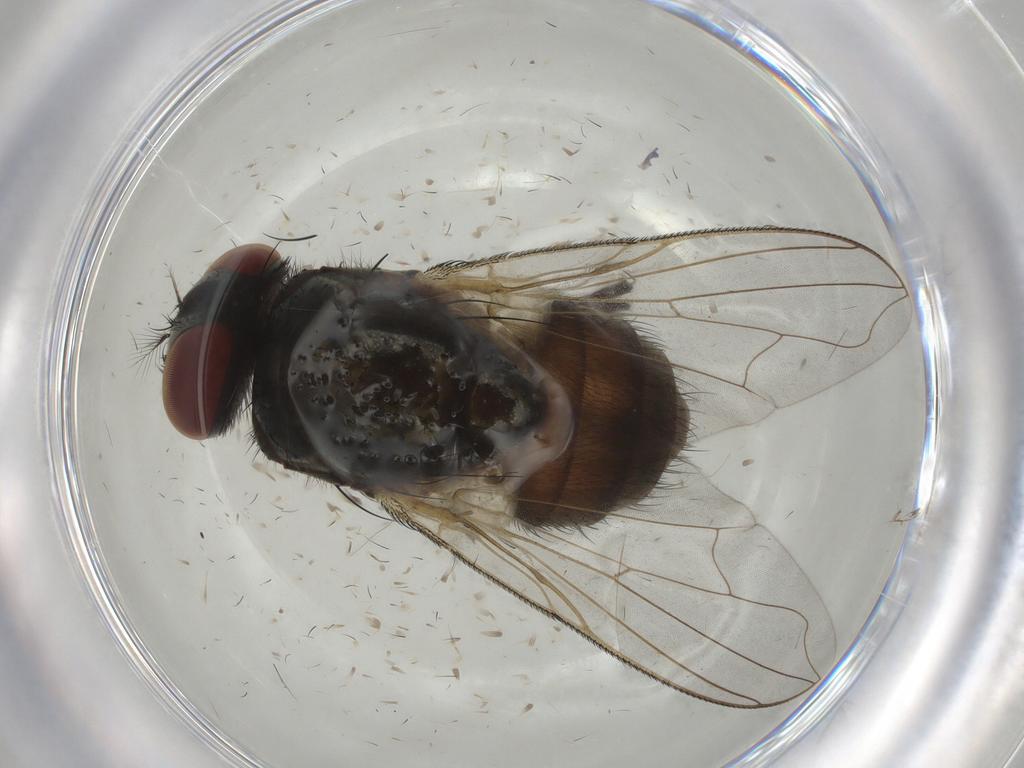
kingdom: Animalia
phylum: Arthropoda
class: Insecta
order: Diptera
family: Muscidae
